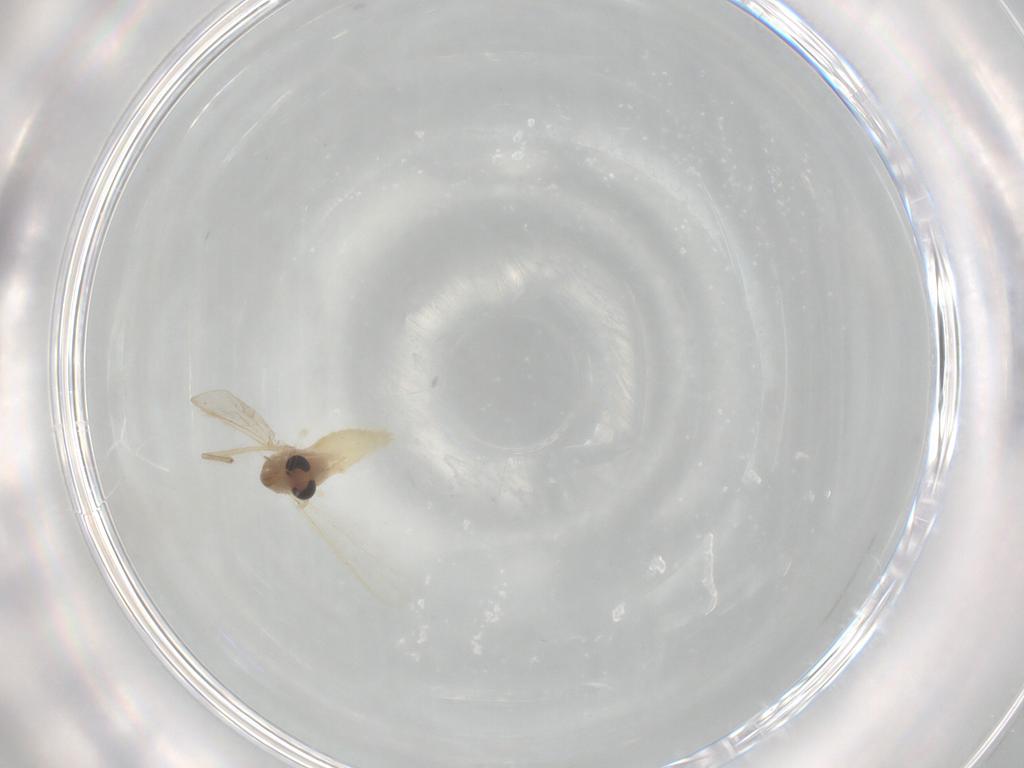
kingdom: Animalia
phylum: Arthropoda
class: Insecta
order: Diptera
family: Chironomidae
